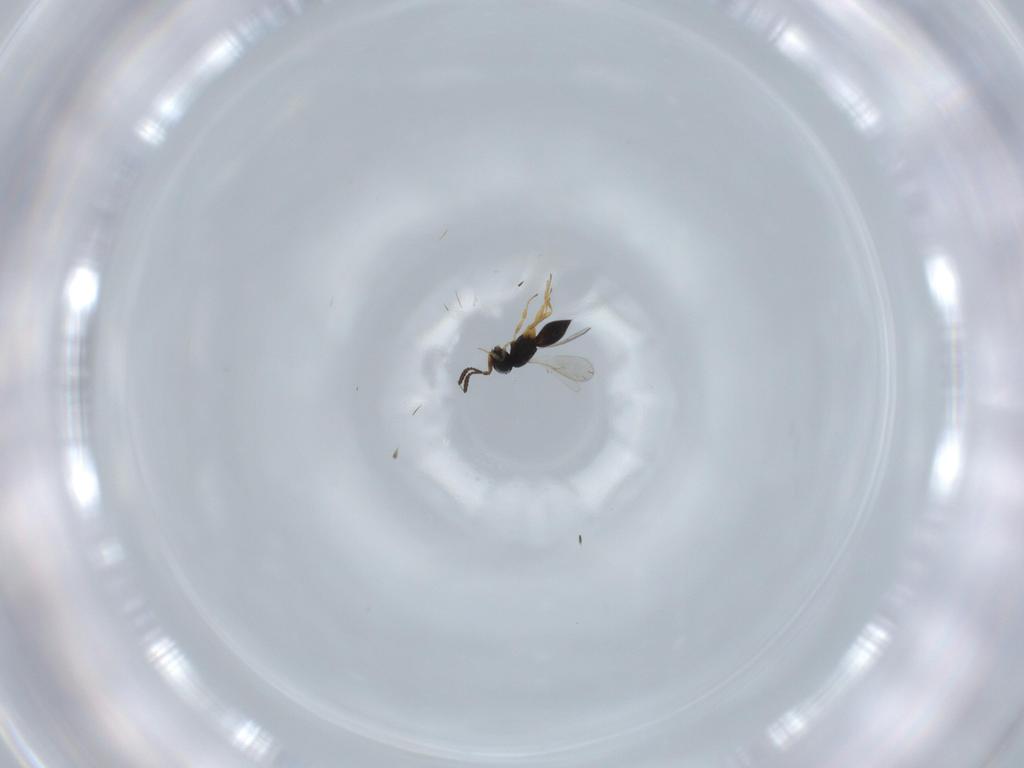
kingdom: Animalia
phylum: Arthropoda
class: Insecta
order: Hymenoptera
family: Scelionidae
